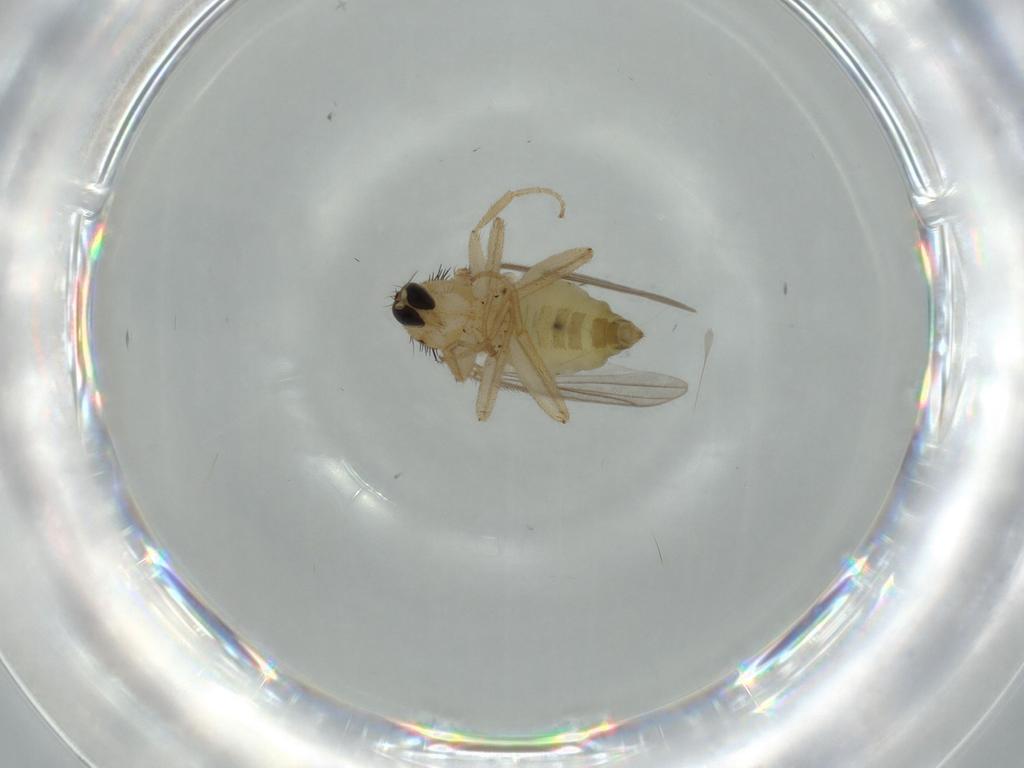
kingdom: Animalia
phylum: Arthropoda
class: Insecta
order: Diptera
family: Hybotidae
